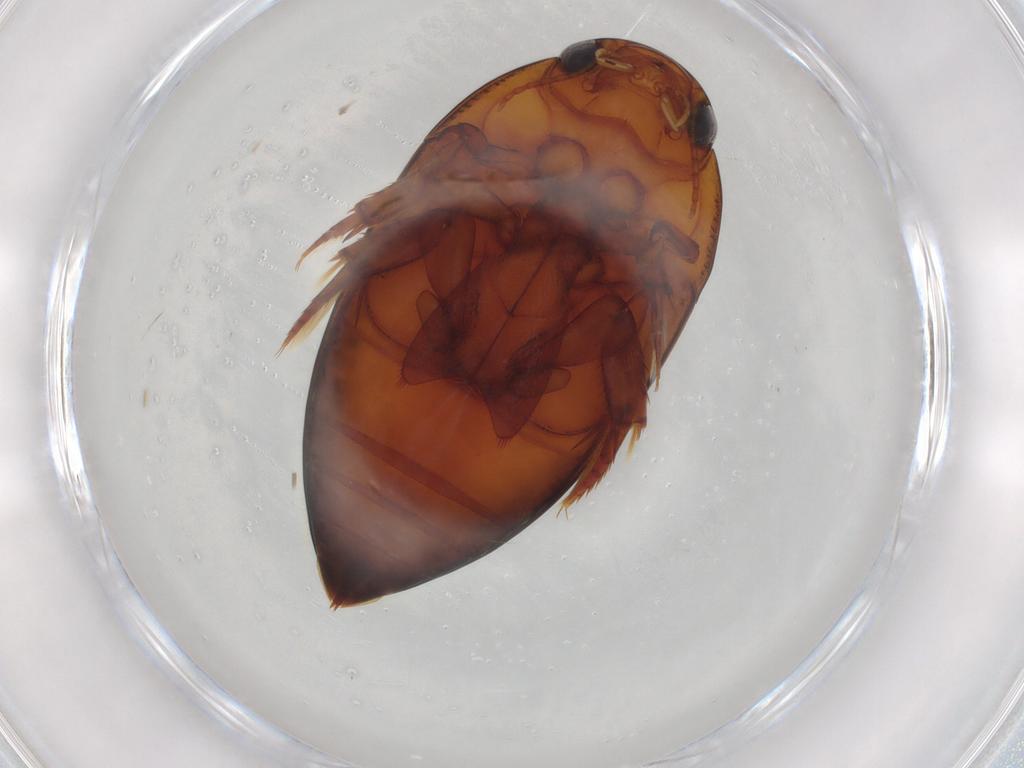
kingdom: Animalia
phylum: Arthropoda
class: Insecta
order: Coleoptera
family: Noteridae
